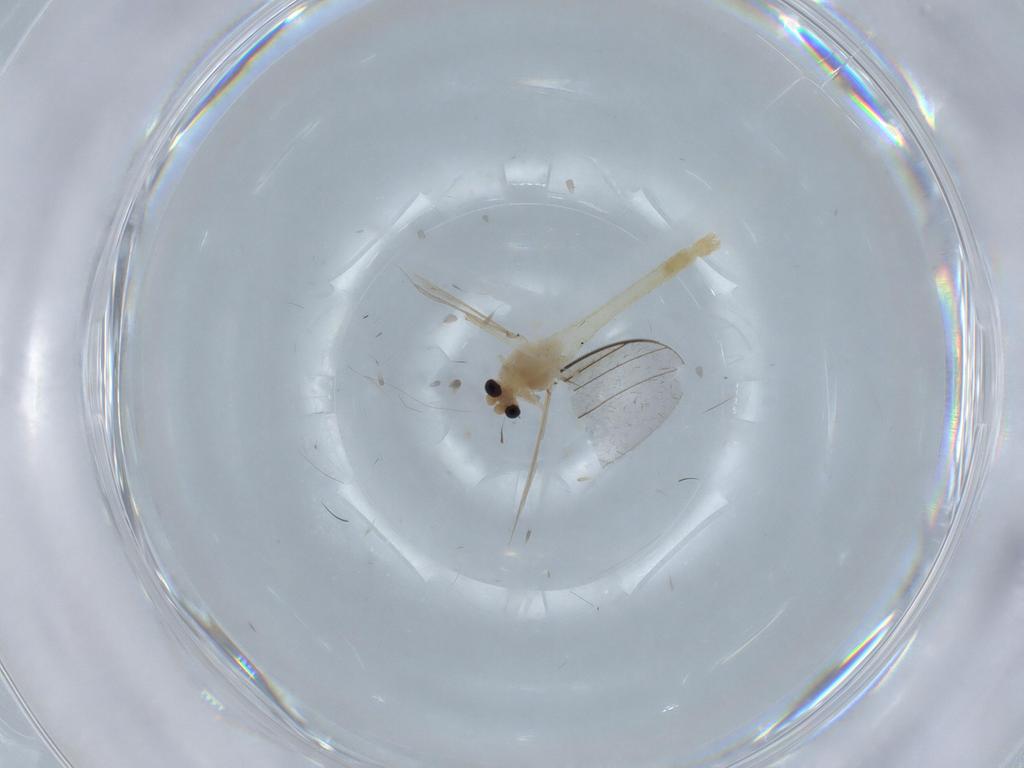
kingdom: Animalia
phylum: Arthropoda
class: Insecta
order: Diptera
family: Chironomidae
